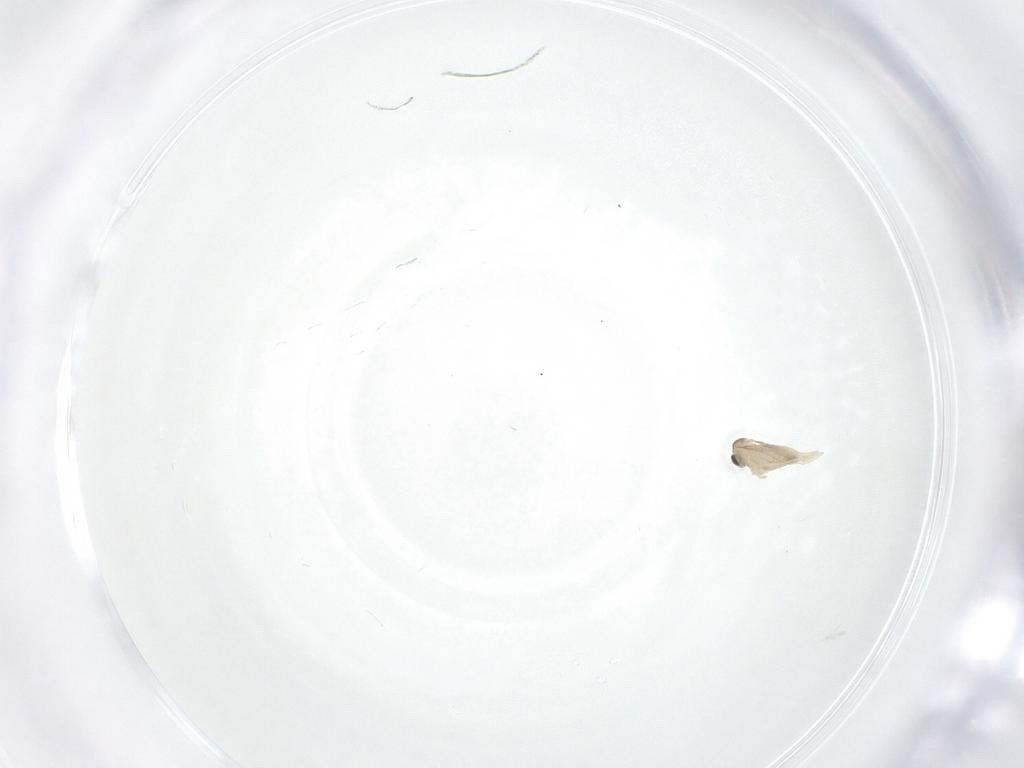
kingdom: Animalia
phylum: Arthropoda
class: Insecta
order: Diptera
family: Sciaridae
